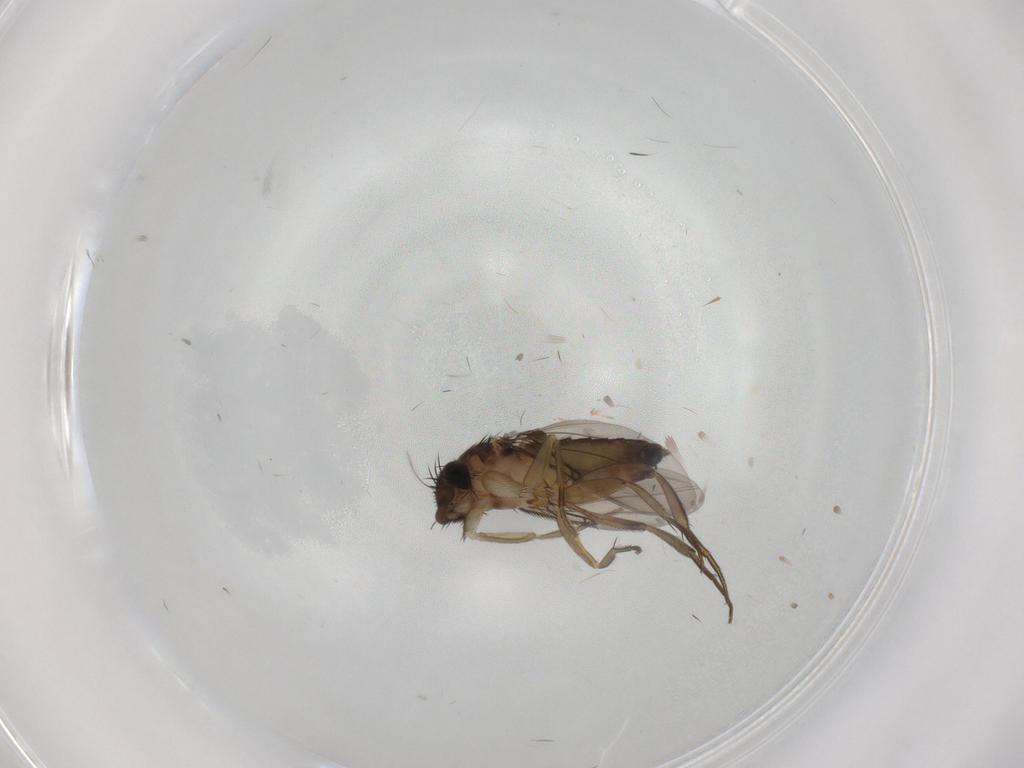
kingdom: Animalia
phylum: Arthropoda
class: Insecta
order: Diptera
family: Phoridae
